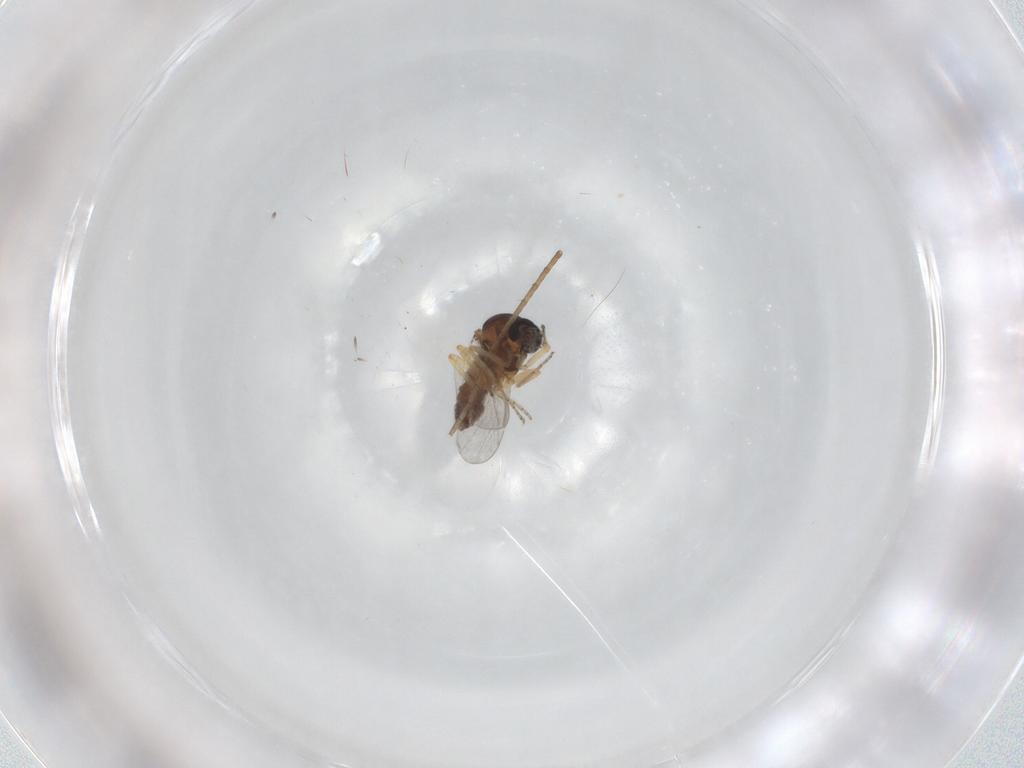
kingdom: Animalia
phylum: Arthropoda
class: Insecta
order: Diptera
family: Ceratopogonidae
